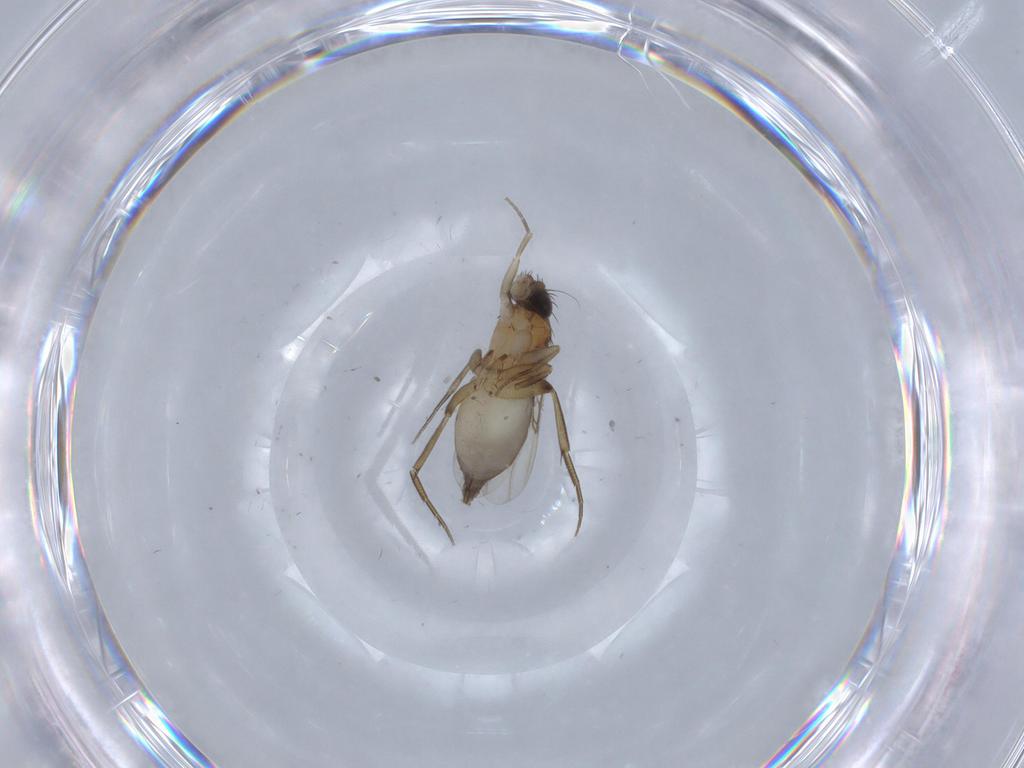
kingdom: Animalia
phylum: Arthropoda
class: Insecta
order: Diptera
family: Phoridae
